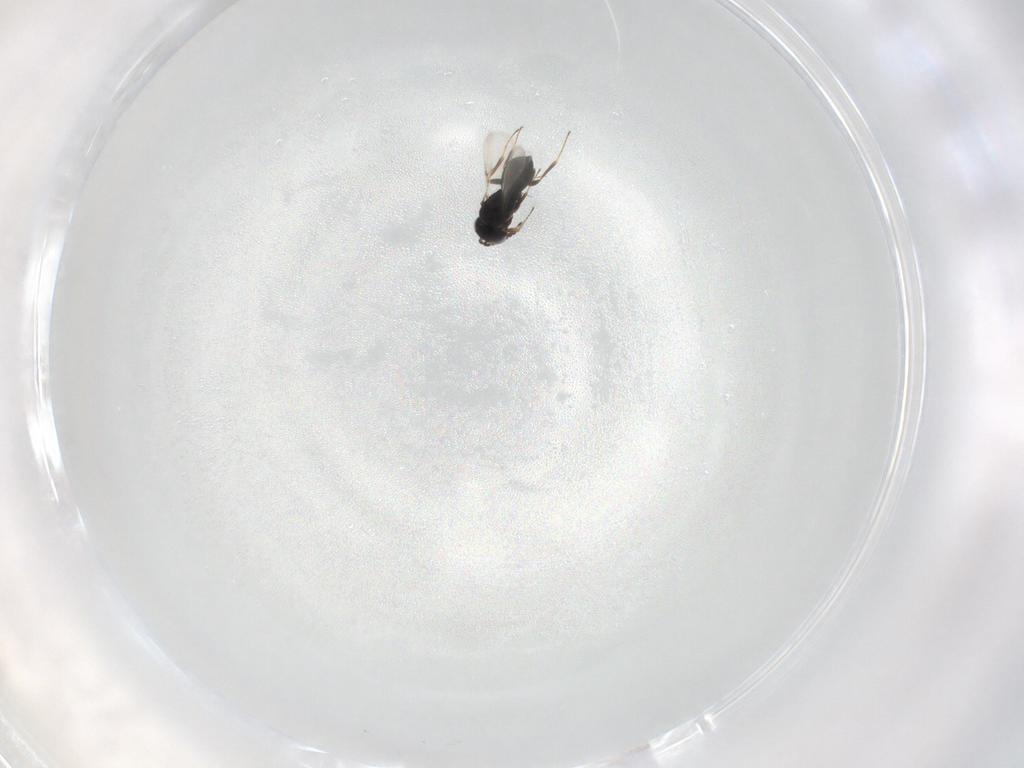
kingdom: Animalia
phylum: Arthropoda
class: Insecta
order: Hymenoptera
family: Scelionidae
